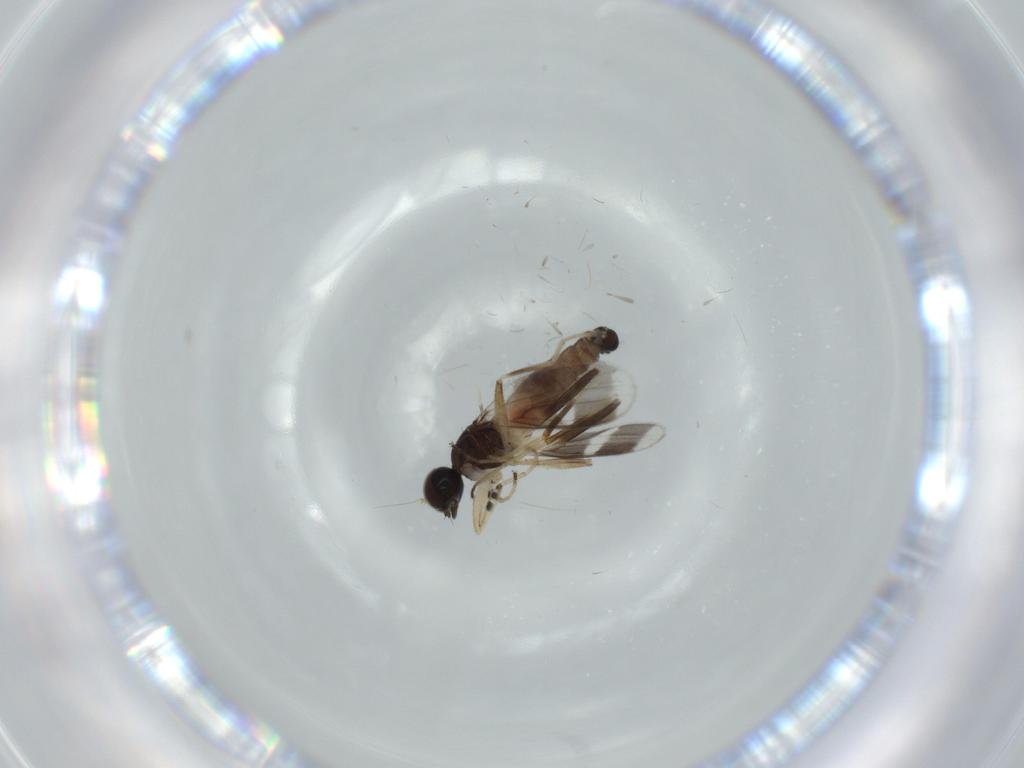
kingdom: Animalia
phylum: Arthropoda
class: Insecta
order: Diptera
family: Hybotidae
